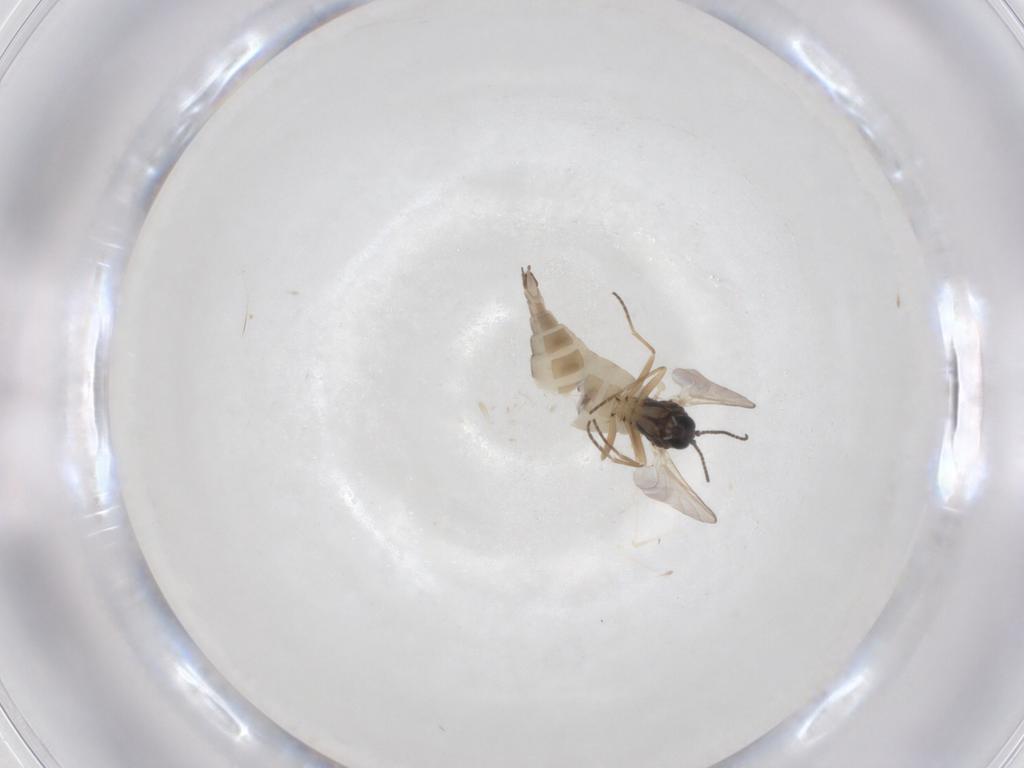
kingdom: Animalia
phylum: Arthropoda
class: Insecta
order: Diptera
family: Sciaridae
